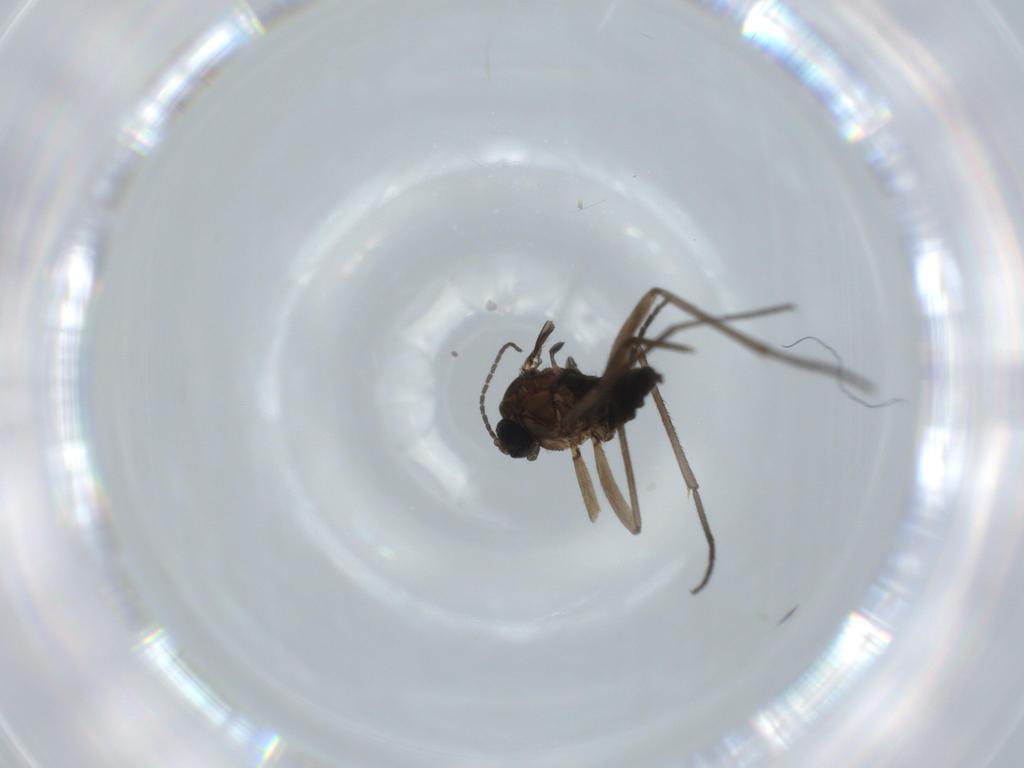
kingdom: Animalia
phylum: Arthropoda
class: Insecta
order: Diptera
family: Sciaridae
